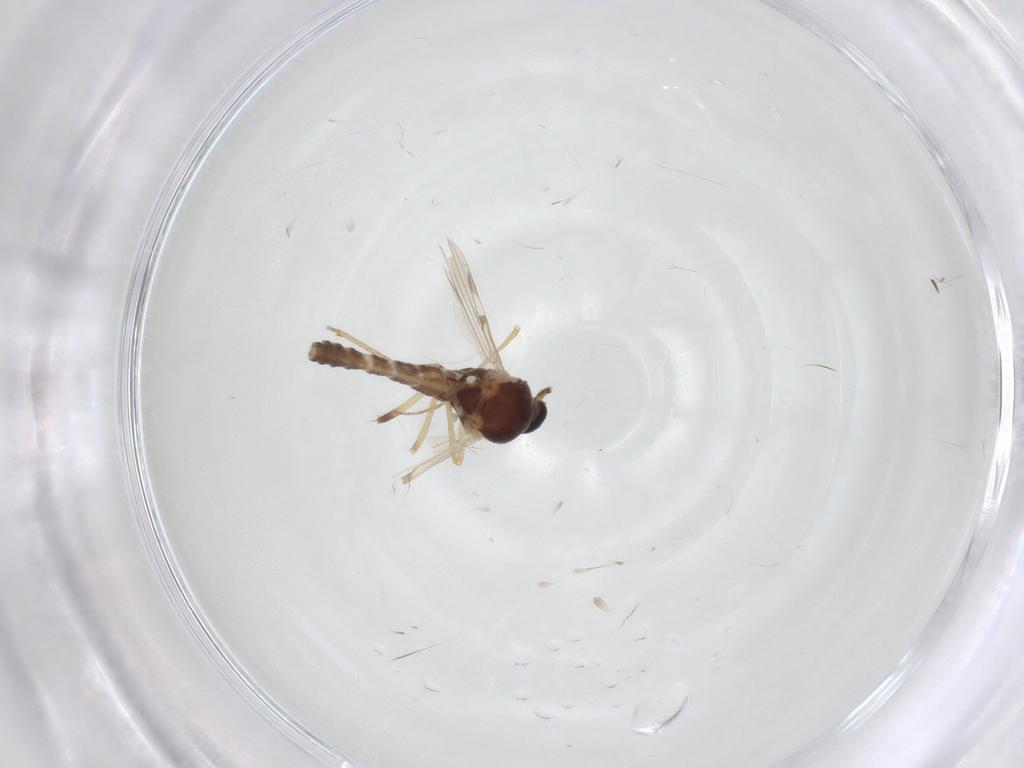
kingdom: Animalia
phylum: Arthropoda
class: Insecta
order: Diptera
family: Ceratopogonidae
